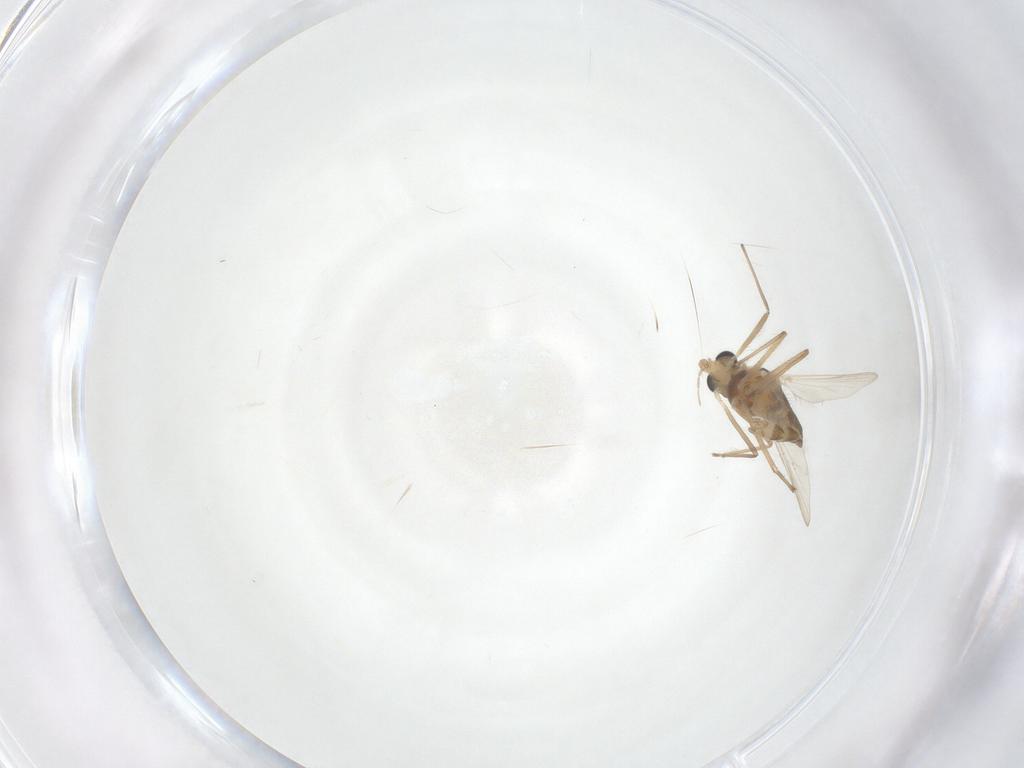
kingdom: Animalia
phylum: Arthropoda
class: Insecta
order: Diptera
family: Chironomidae
